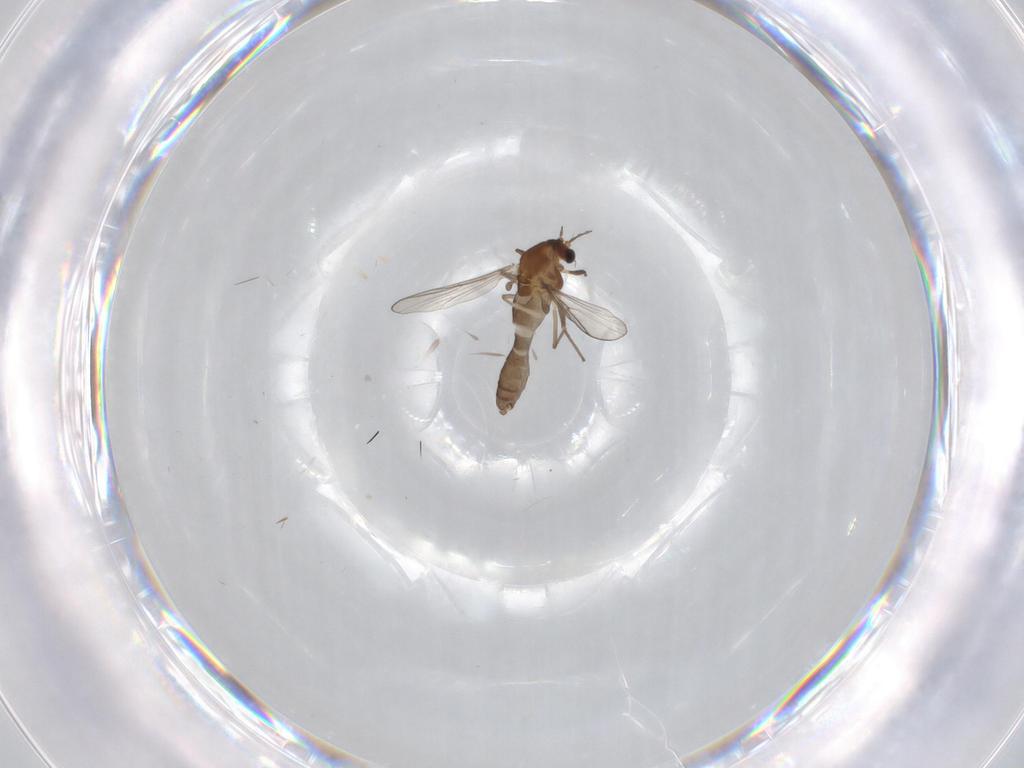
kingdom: Animalia
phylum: Arthropoda
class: Insecta
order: Diptera
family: Chironomidae
